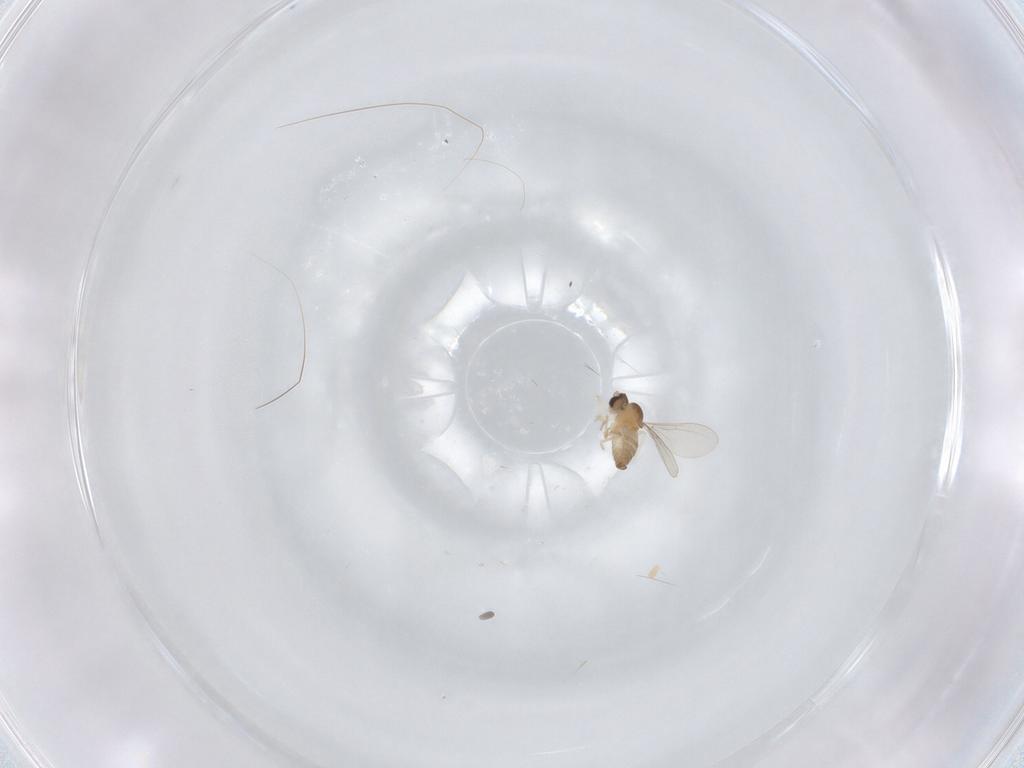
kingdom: Animalia
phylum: Arthropoda
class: Insecta
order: Diptera
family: Cecidomyiidae
